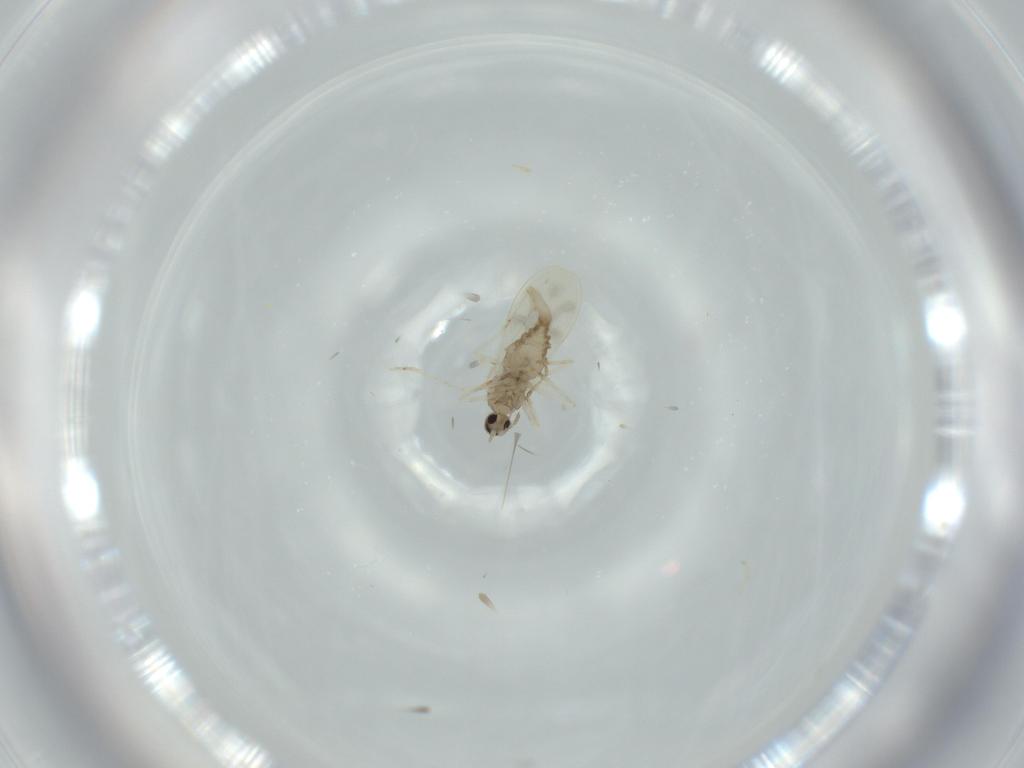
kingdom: Animalia
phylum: Arthropoda
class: Insecta
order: Diptera
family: Cecidomyiidae
